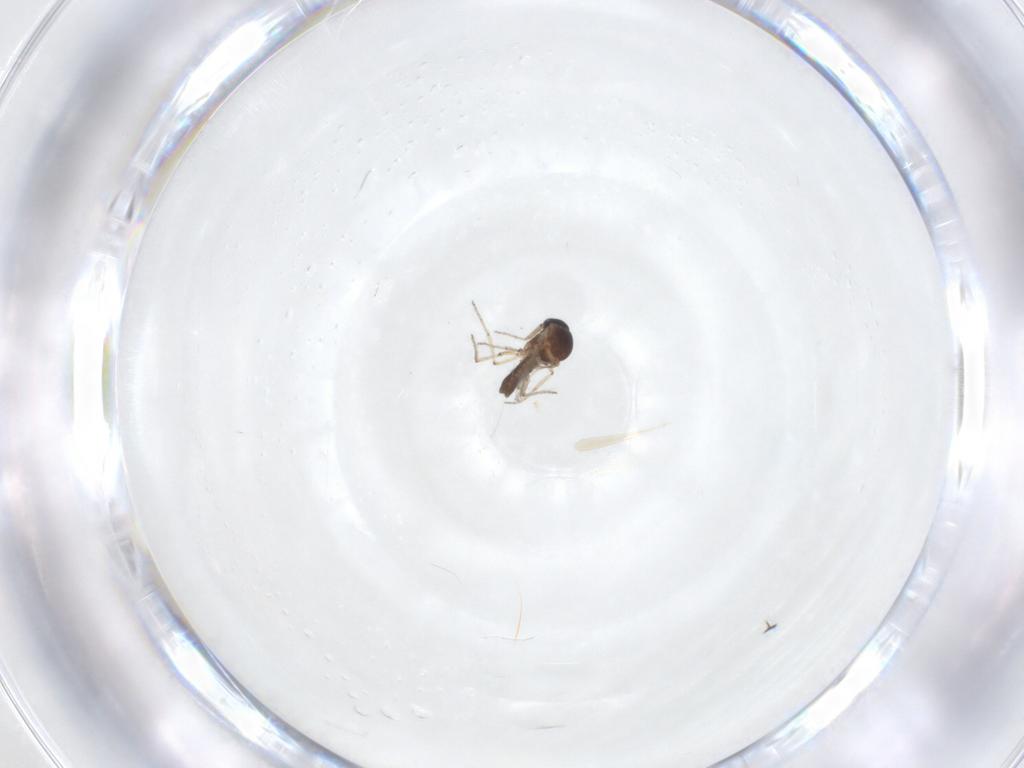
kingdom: Animalia
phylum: Arthropoda
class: Insecta
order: Diptera
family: Ceratopogonidae
